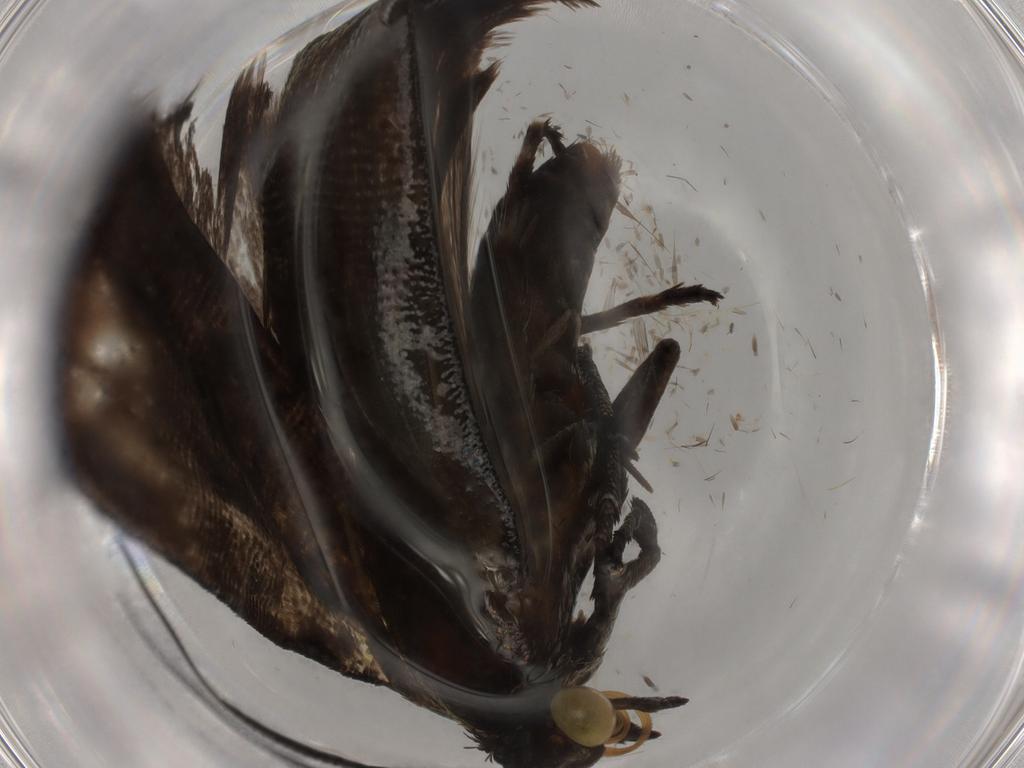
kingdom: Animalia
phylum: Arthropoda
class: Insecta
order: Lepidoptera
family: Choreutidae
